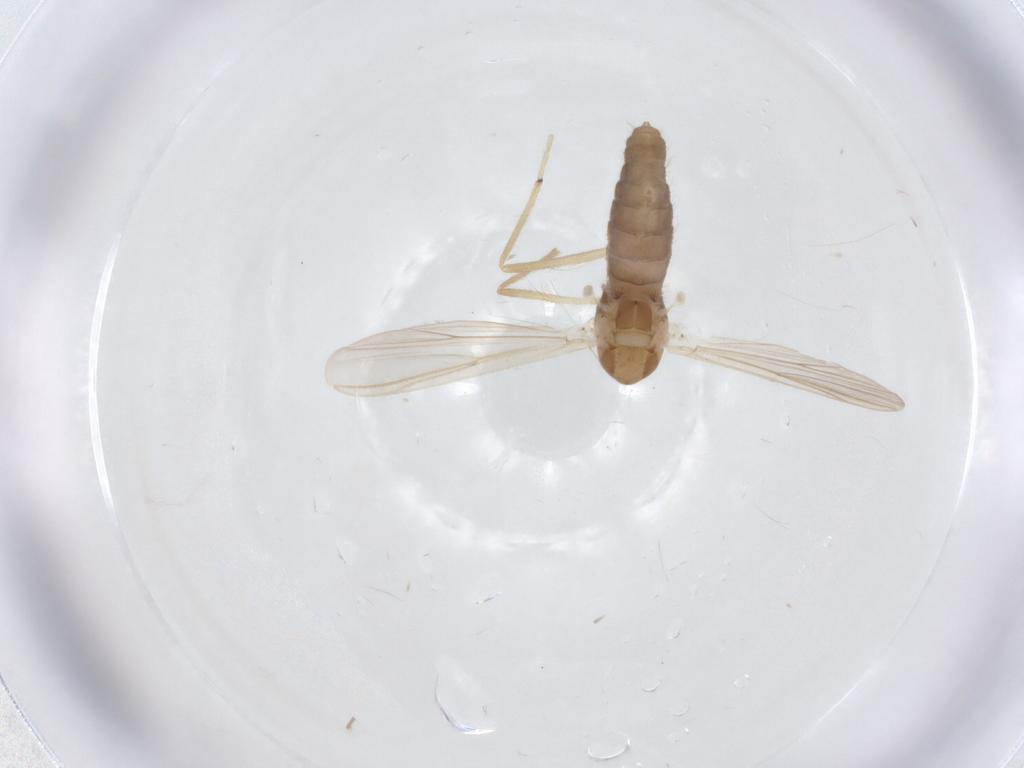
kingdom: Animalia
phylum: Arthropoda
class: Insecta
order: Diptera
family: Chironomidae
